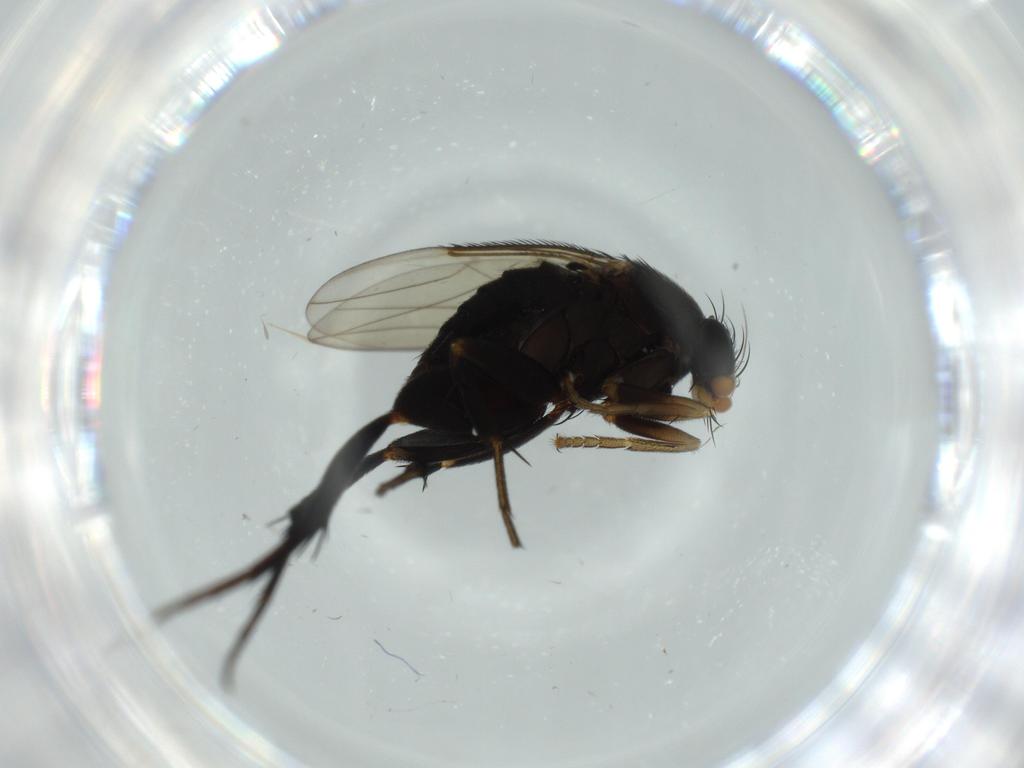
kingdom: Animalia
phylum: Arthropoda
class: Insecta
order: Diptera
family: Phoridae
